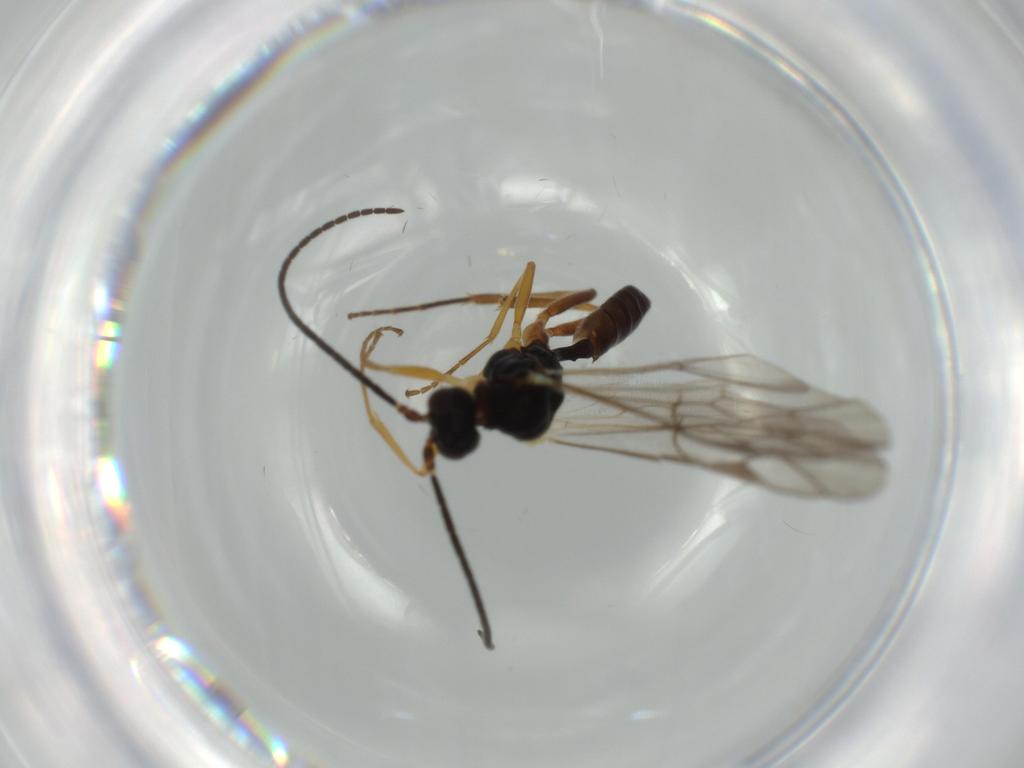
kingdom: Animalia
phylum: Arthropoda
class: Insecta
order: Hymenoptera
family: Ichneumonidae
